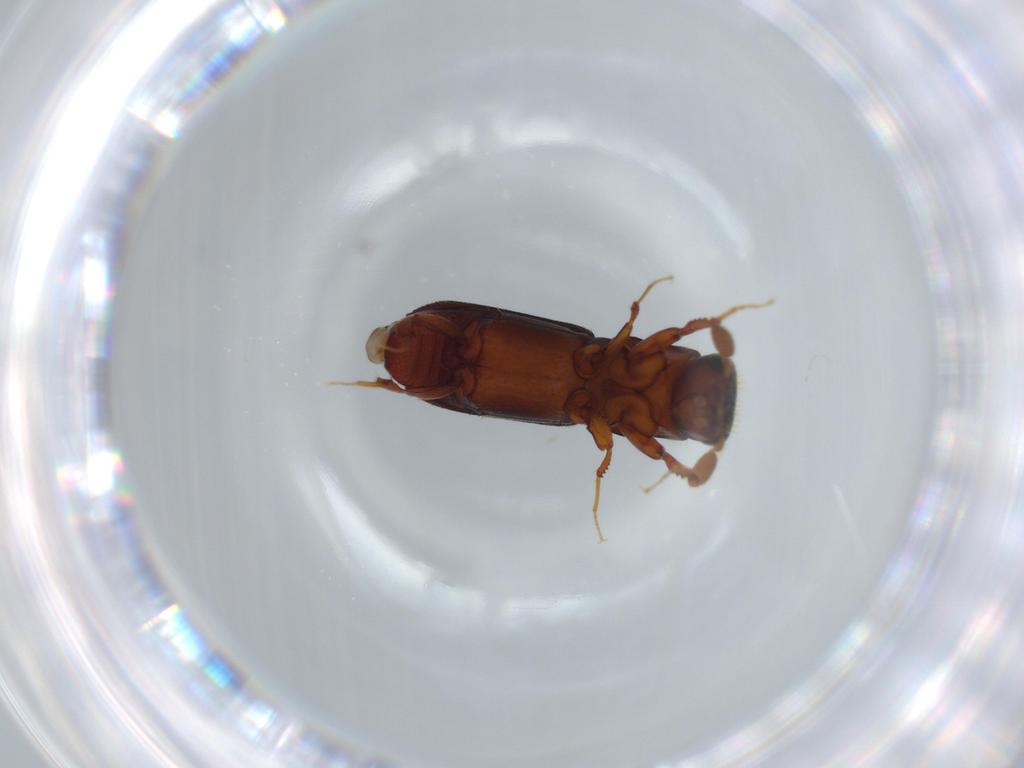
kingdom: Animalia
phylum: Arthropoda
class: Insecta
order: Coleoptera
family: Curculionidae
